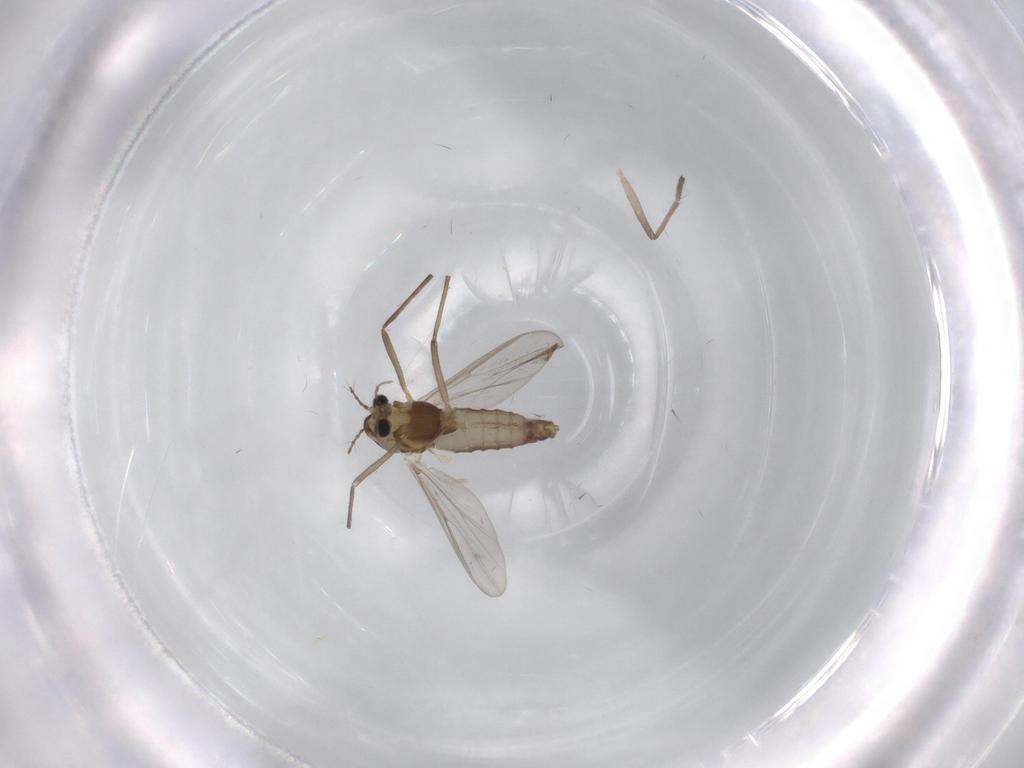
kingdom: Animalia
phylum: Arthropoda
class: Insecta
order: Diptera
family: Chironomidae
